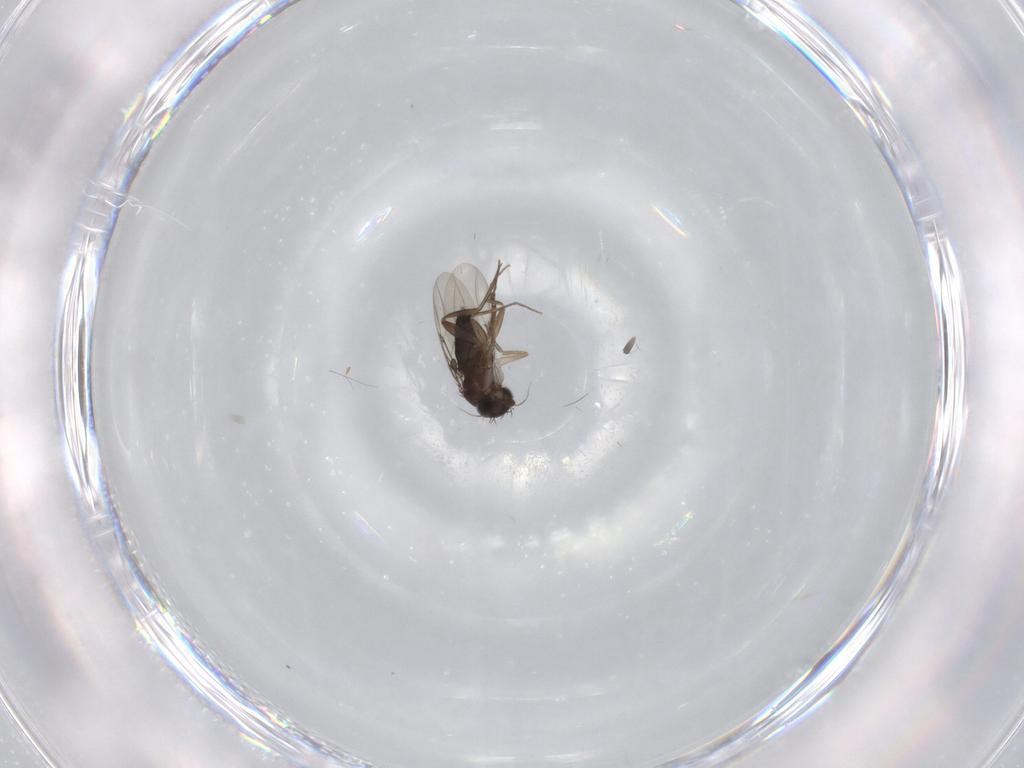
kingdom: Animalia
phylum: Arthropoda
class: Insecta
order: Diptera
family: Phoridae
